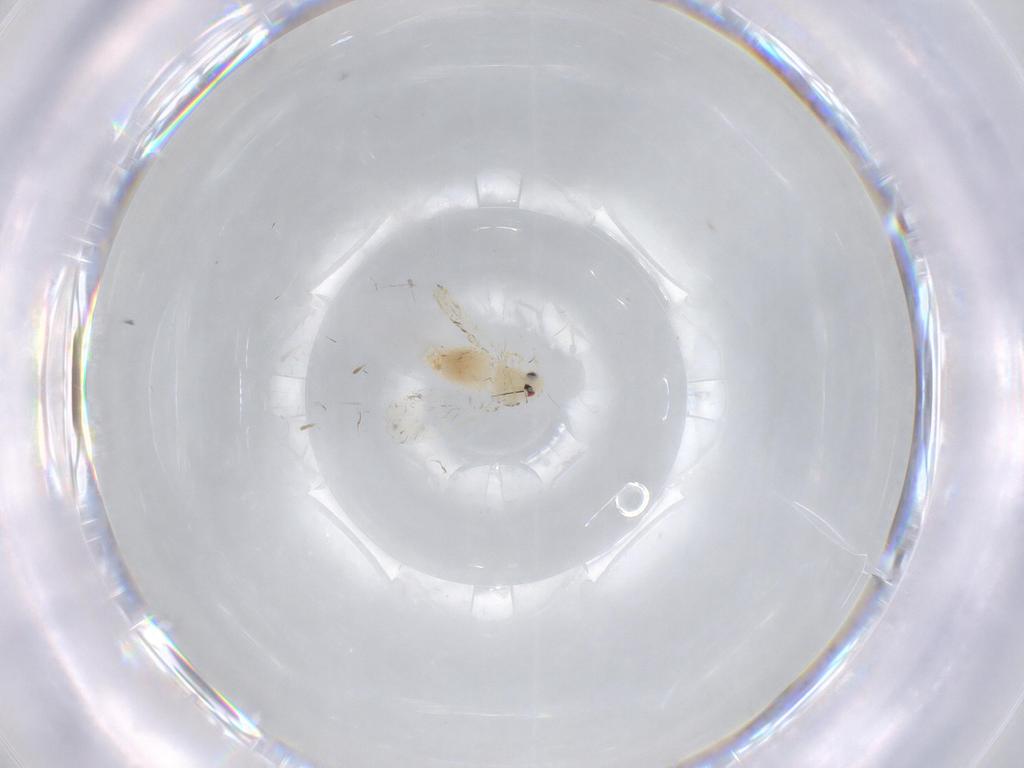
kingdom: Animalia
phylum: Arthropoda
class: Insecta
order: Hemiptera
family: Aleyrodidae
